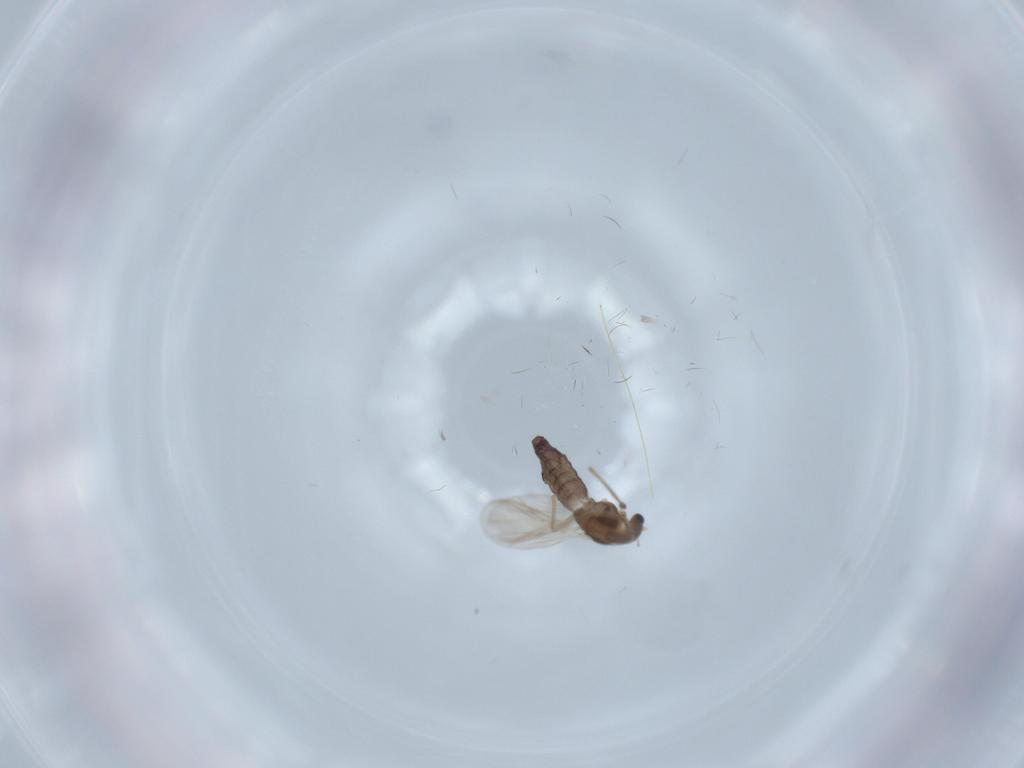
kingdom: Animalia
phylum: Arthropoda
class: Insecta
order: Diptera
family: Chironomidae
